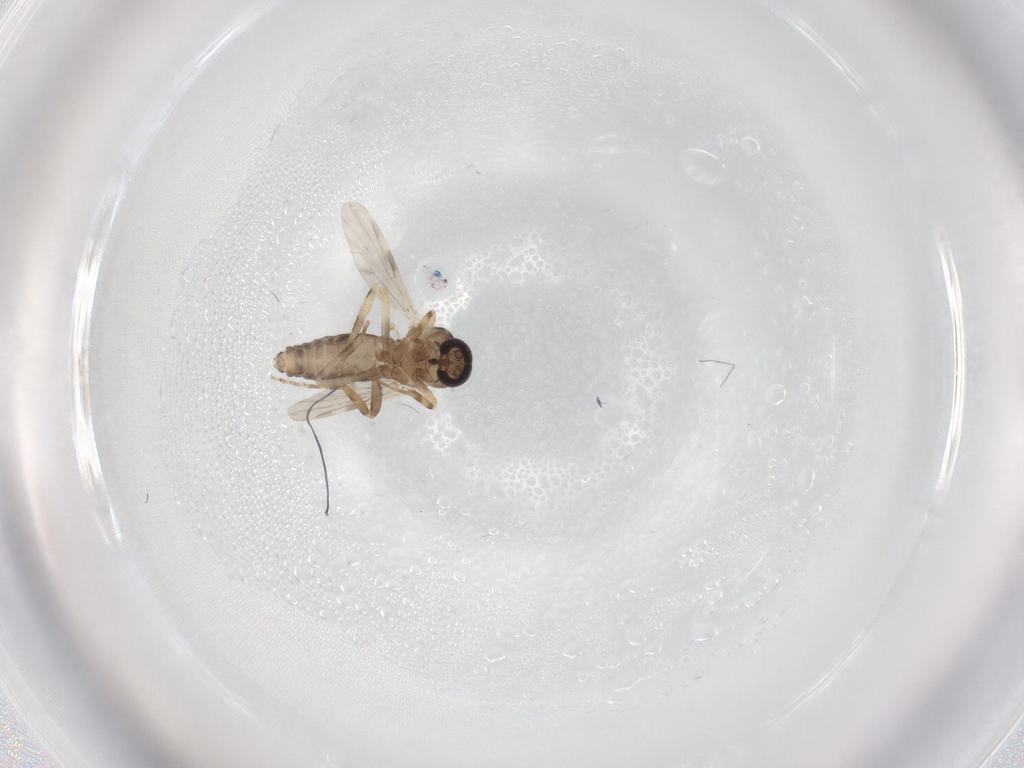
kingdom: Animalia
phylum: Arthropoda
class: Insecta
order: Diptera
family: Ceratopogonidae
